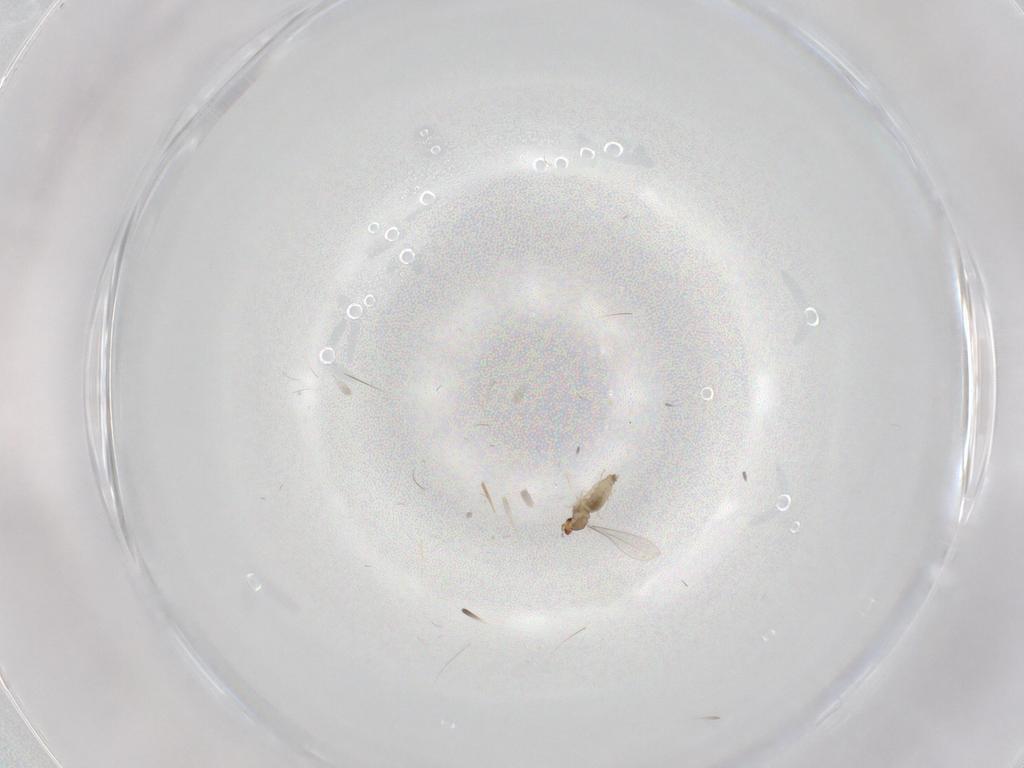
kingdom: Animalia
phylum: Arthropoda
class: Insecta
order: Diptera
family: Cecidomyiidae
